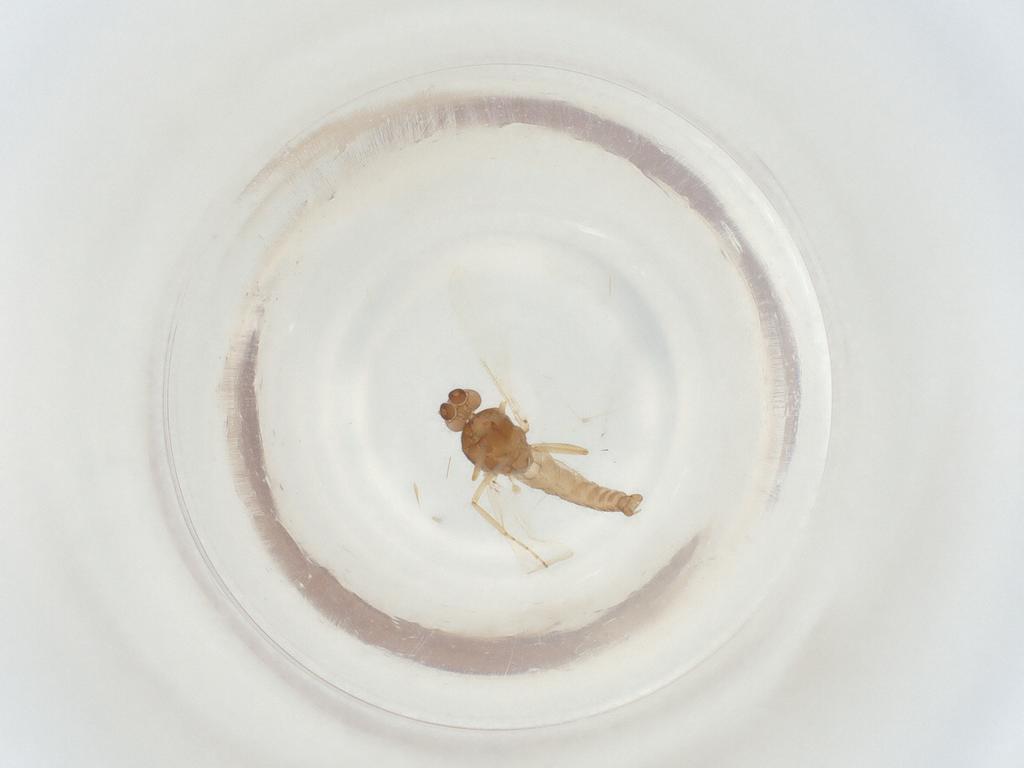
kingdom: Animalia
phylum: Arthropoda
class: Insecta
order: Diptera
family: Ceratopogonidae
